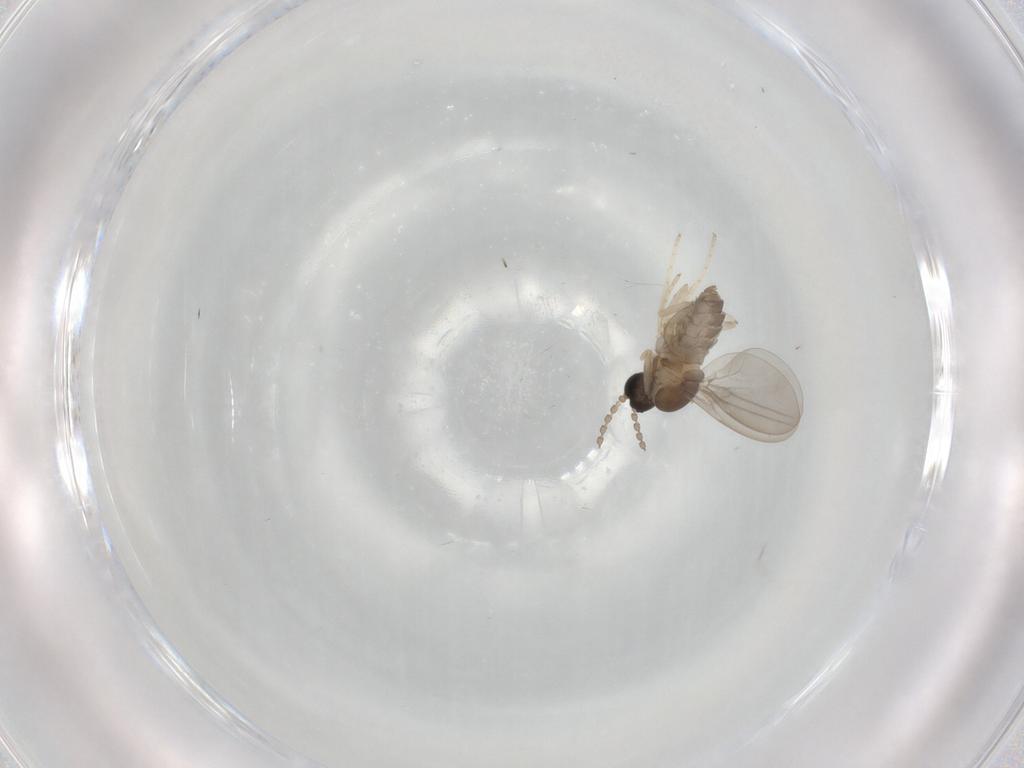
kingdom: Animalia
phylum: Arthropoda
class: Insecta
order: Diptera
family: Cecidomyiidae
